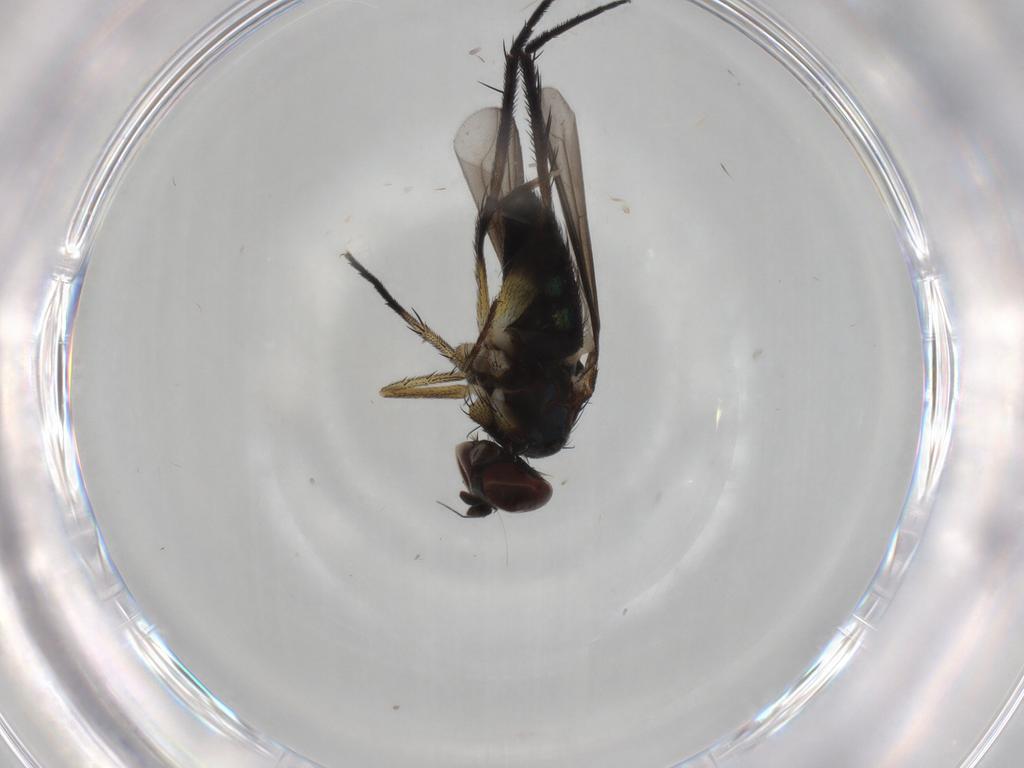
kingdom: Animalia
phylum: Arthropoda
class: Insecta
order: Diptera
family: Dolichopodidae
